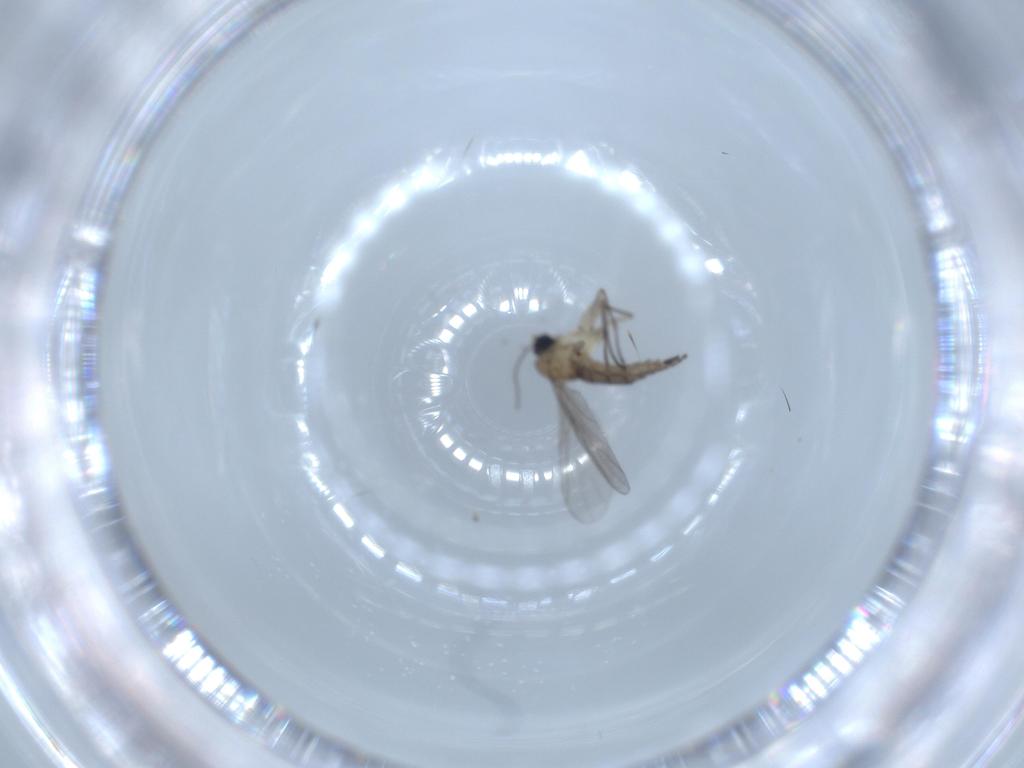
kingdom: Animalia
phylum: Arthropoda
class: Insecta
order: Diptera
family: Sciaridae
